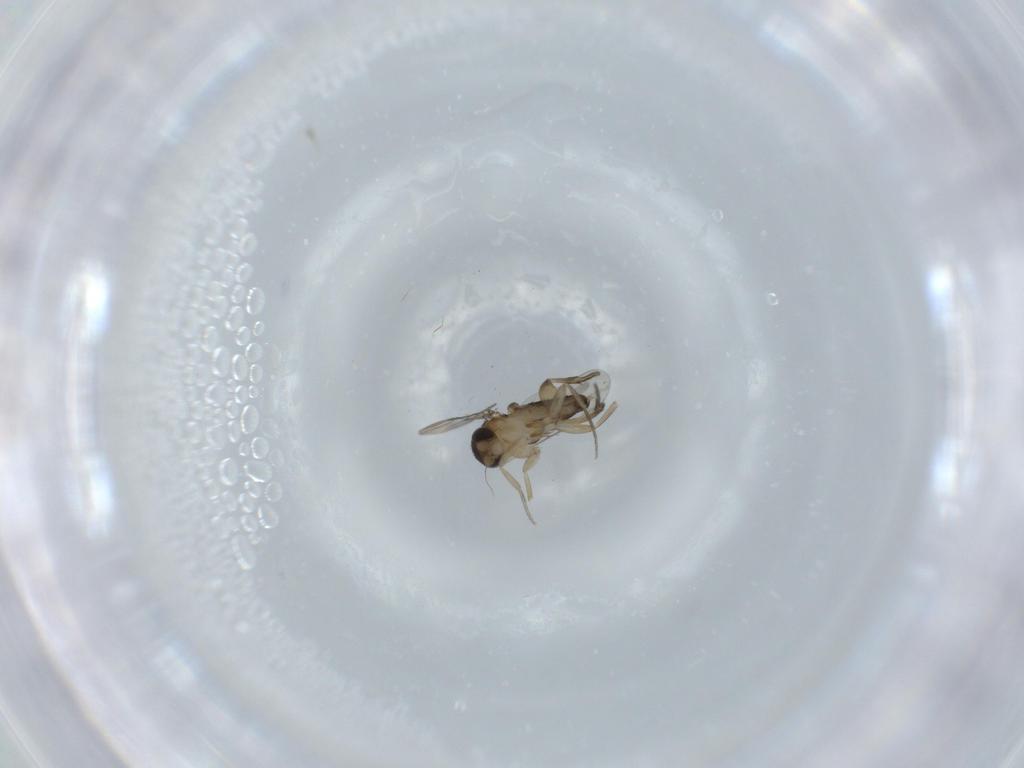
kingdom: Animalia
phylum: Arthropoda
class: Insecta
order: Diptera
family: Phoridae
